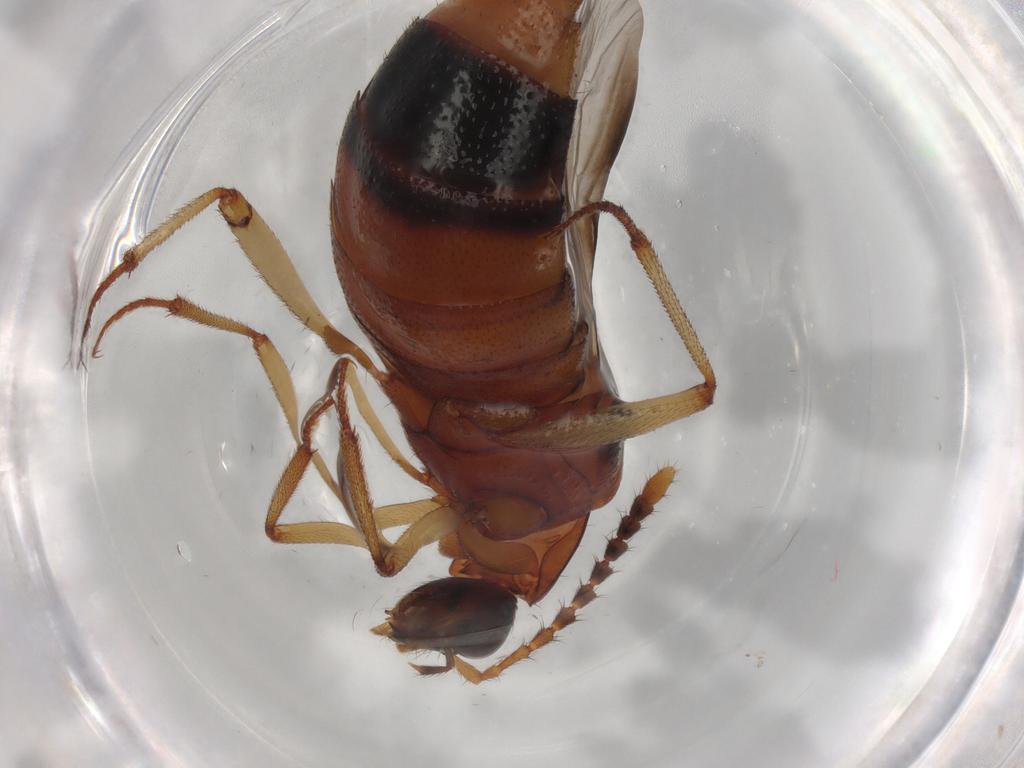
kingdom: Animalia
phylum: Arthropoda
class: Insecta
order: Coleoptera
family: Staphylinidae
